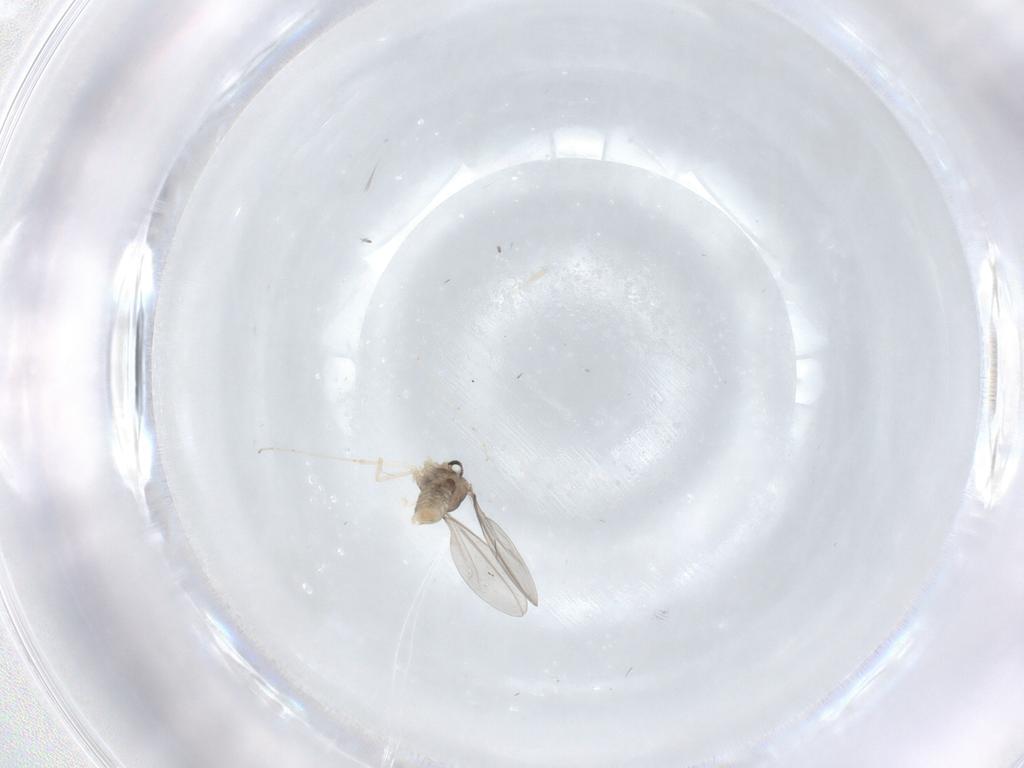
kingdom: Animalia
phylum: Arthropoda
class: Insecta
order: Diptera
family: Cecidomyiidae
